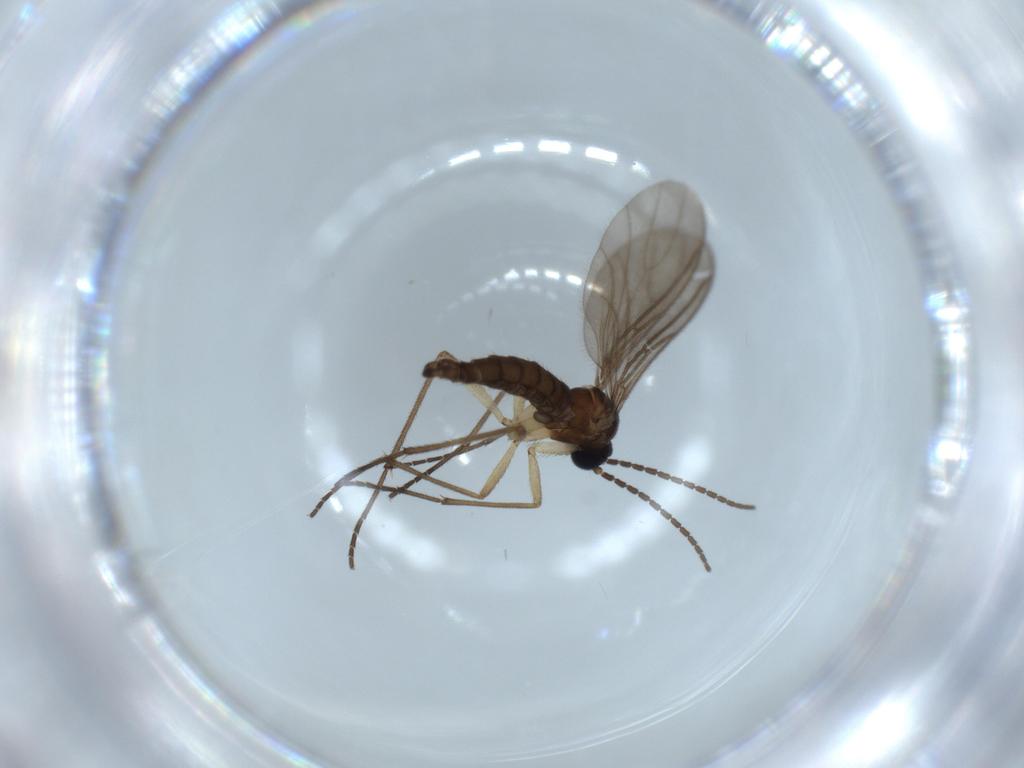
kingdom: Animalia
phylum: Arthropoda
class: Insecta
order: Diptera
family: Sciaridae
